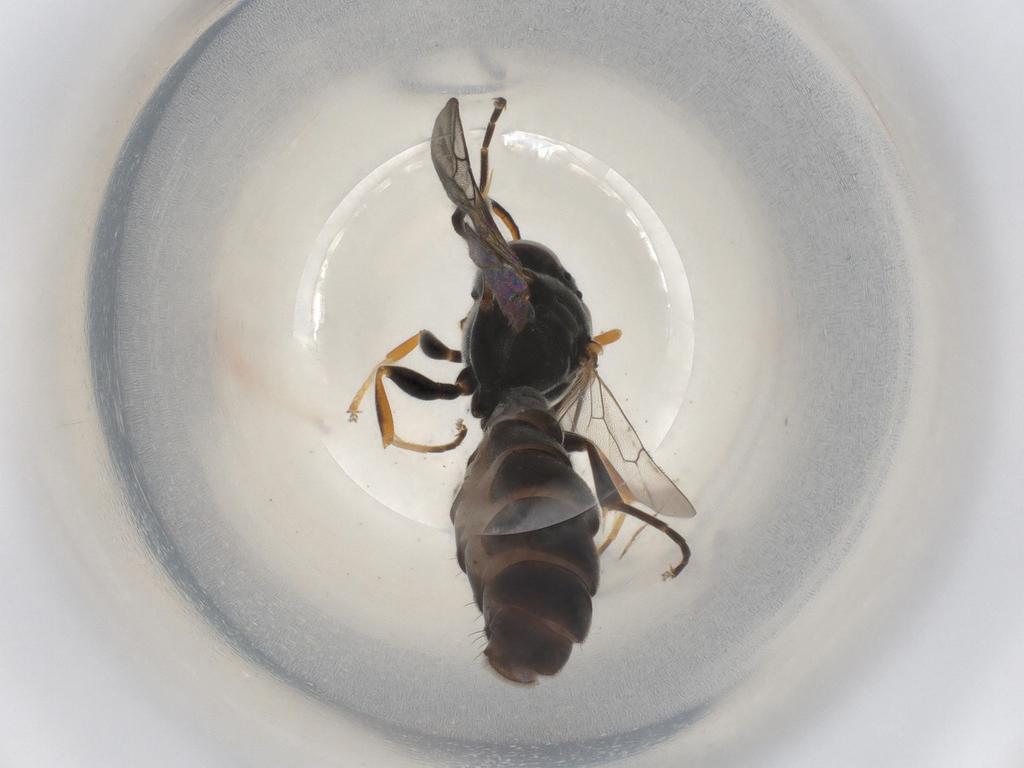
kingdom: Animalia
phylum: Arthropoda
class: Insecta
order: Hymenoptera
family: Crabronidae
